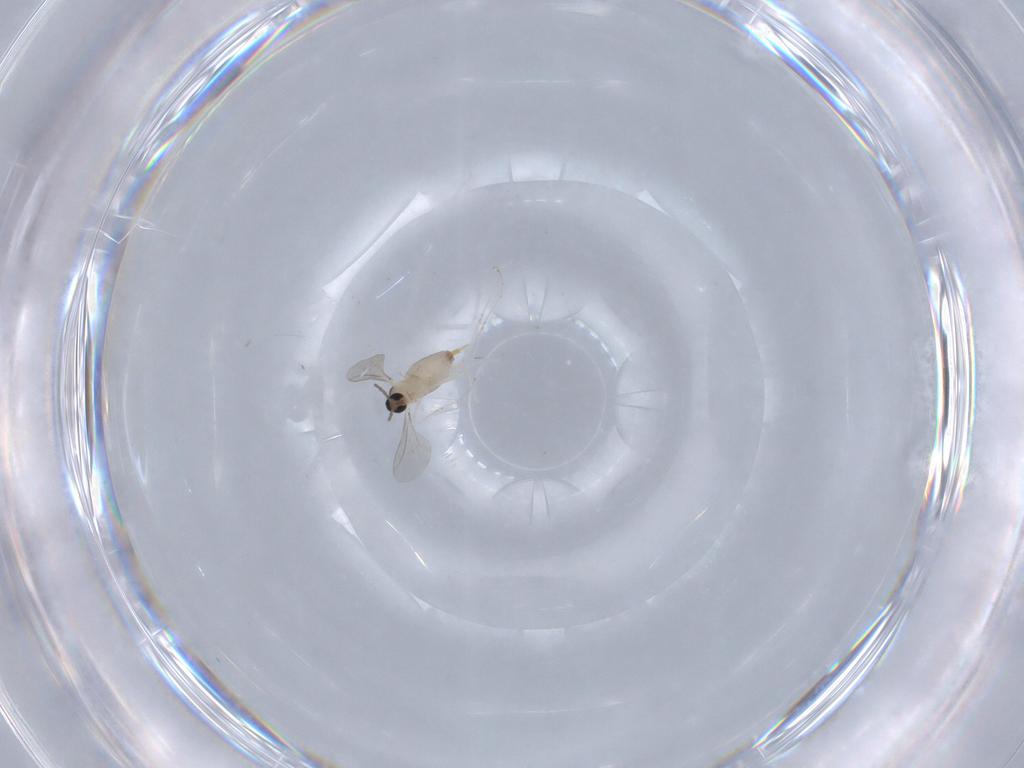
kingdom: Animalia
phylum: Arthropoda
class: Insecta
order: Diptera
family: Cecidomyiidae
